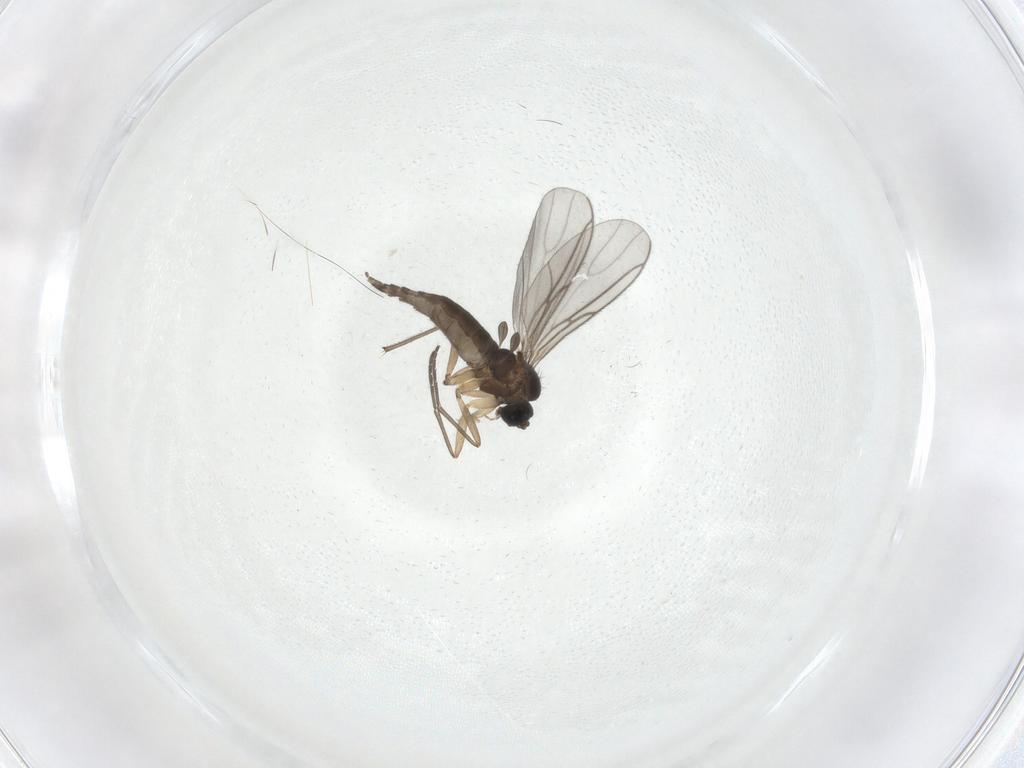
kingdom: Animalia
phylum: Arthropoda
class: Insecta
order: Diptera
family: Sciaridae
